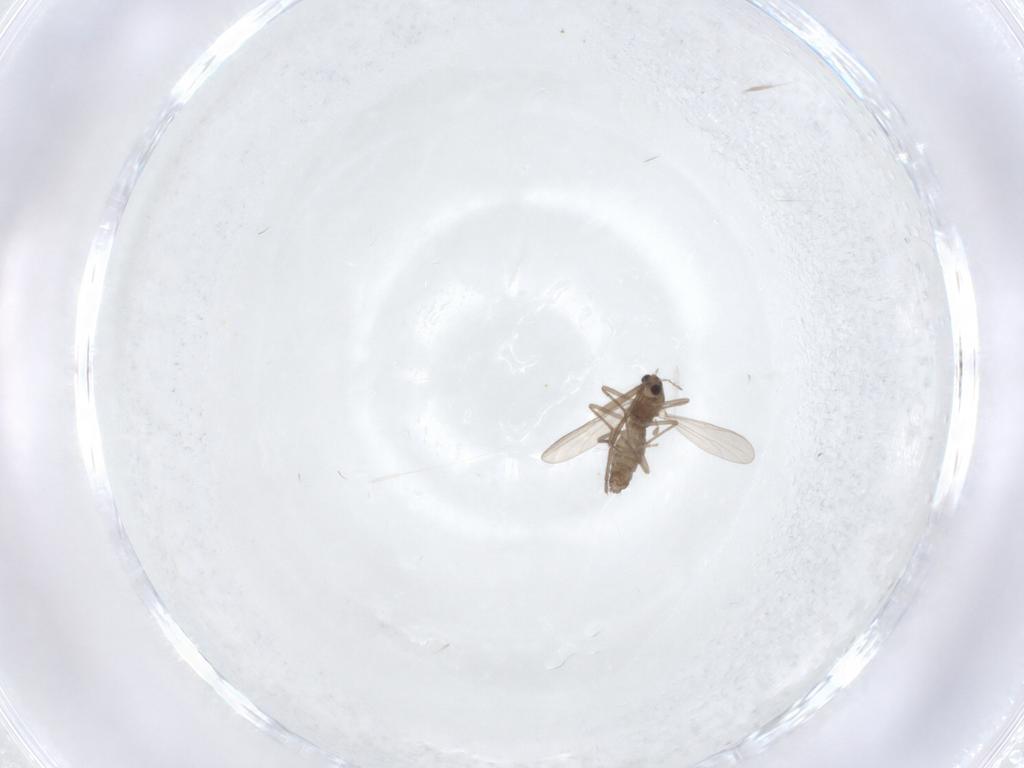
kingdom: Animalia
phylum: Arthropoda
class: Insecta
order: Diptera
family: Chironomidae
